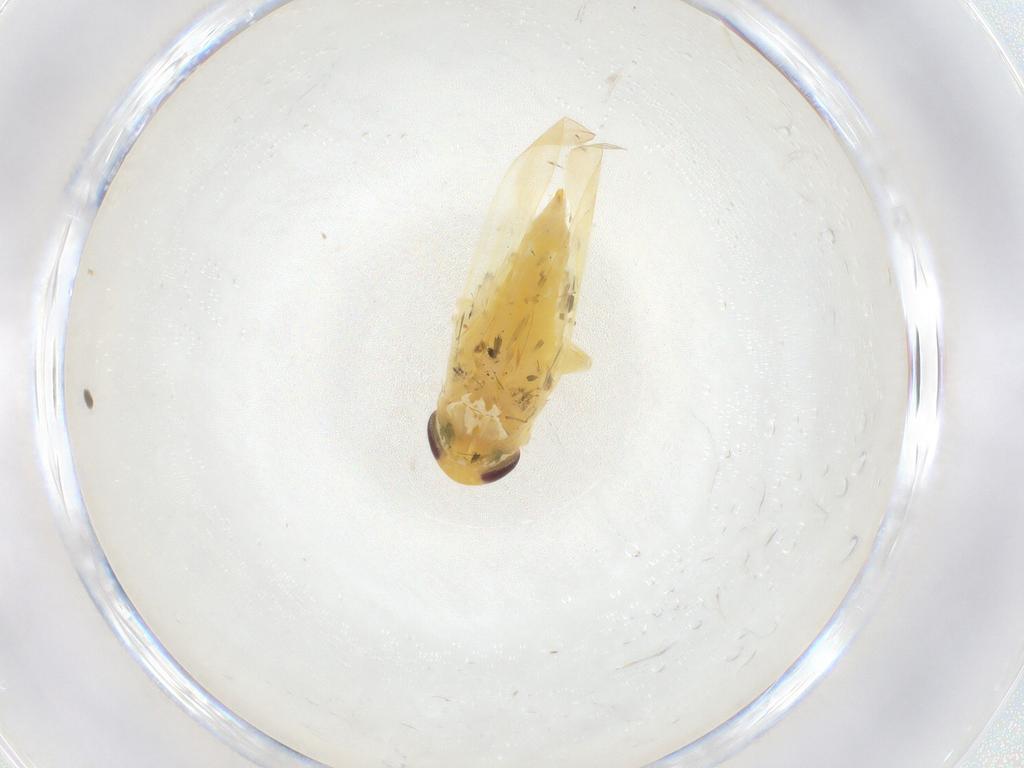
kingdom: Animalia
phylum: Arthropoda
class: Insecta
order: Hemiptera
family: Cicadellidae
